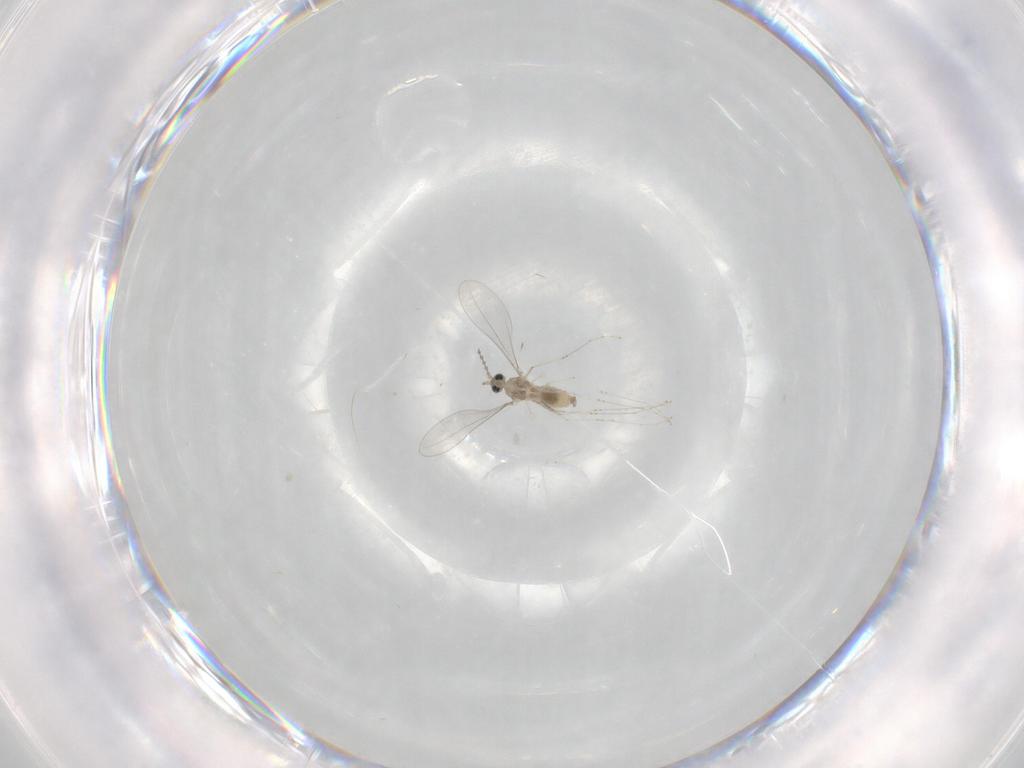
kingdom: Animalia
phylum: Arthropoda
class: Insecta
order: Diptera
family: Cecidomyiidae
